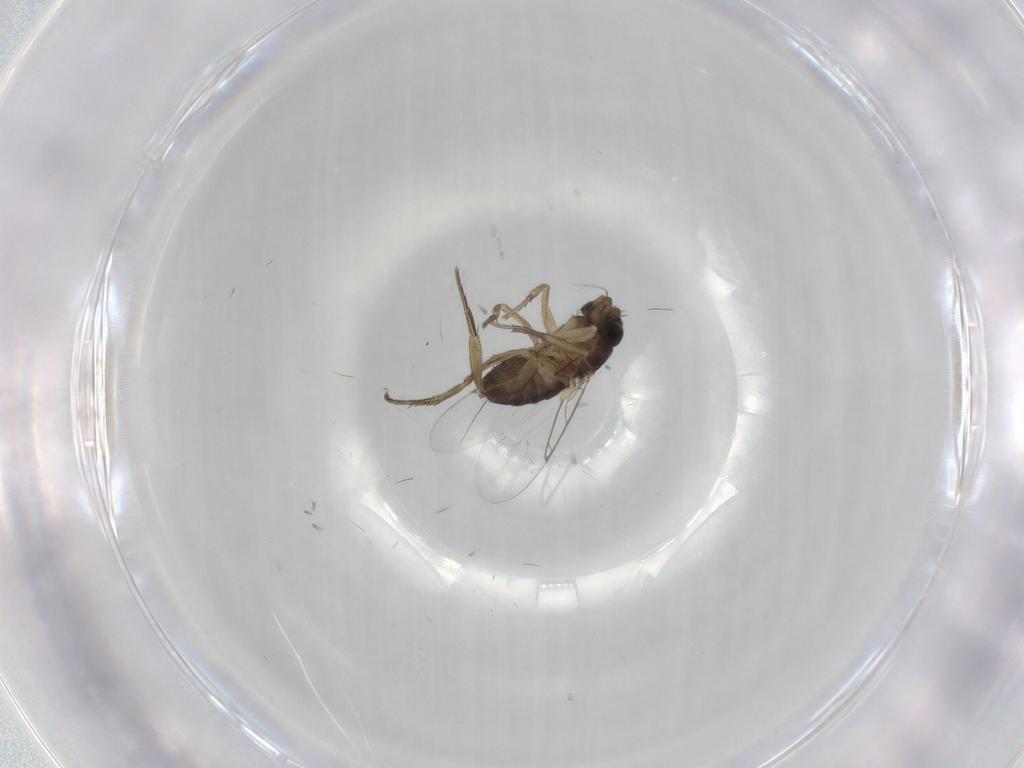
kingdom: Animalia
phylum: Arthropoda
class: Insecta
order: Diptera
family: Phoridae
